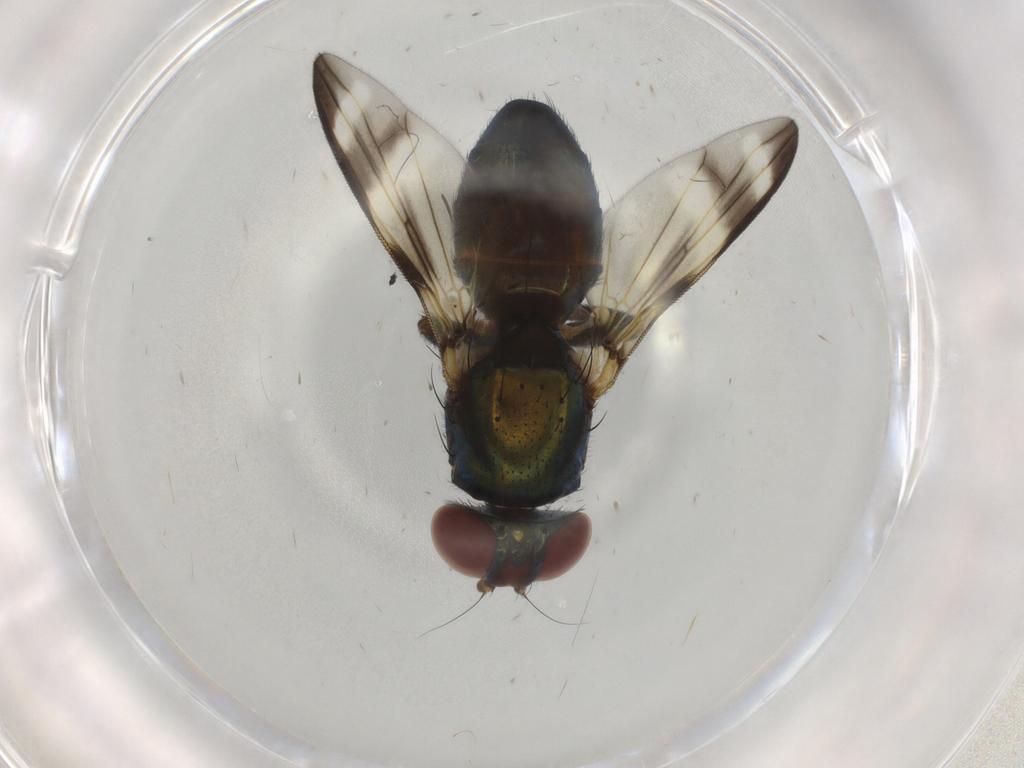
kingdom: Animalia
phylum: Arthropoda
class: Insecta
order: Diptera
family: Ulidiidae
